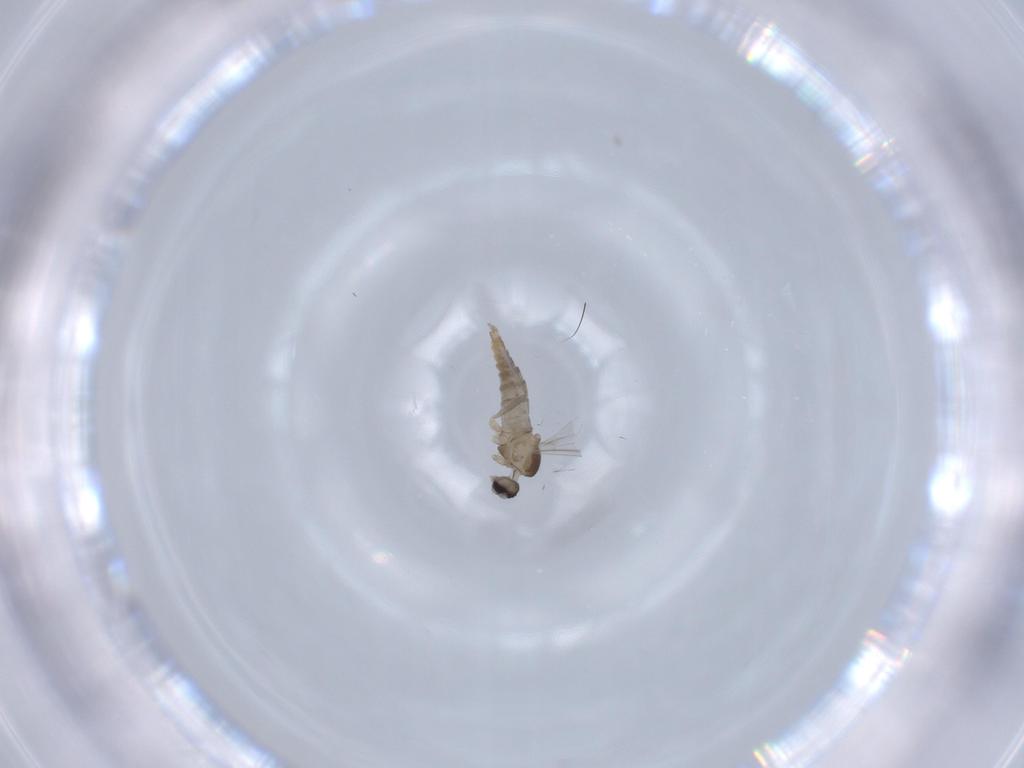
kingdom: Animalia
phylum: Arthropoda
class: Insecta
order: Diptera
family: Cecidomyiidae
